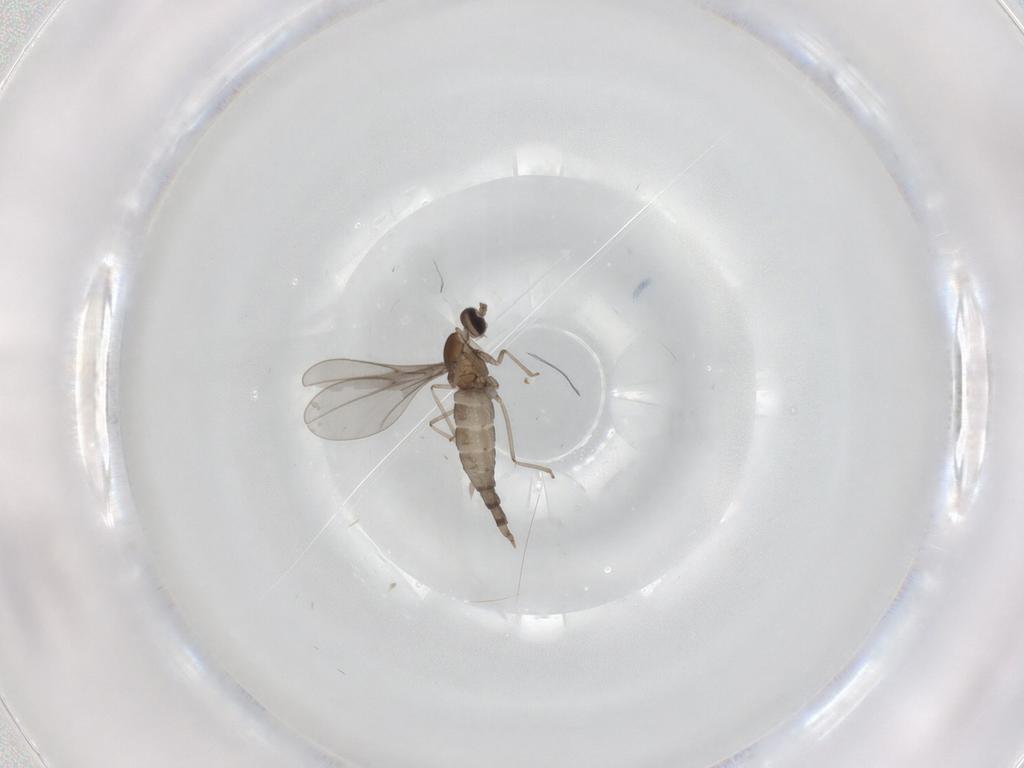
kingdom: Animalia
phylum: Arthropoda
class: Insecta
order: Diptera
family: Cecidomyiidae
